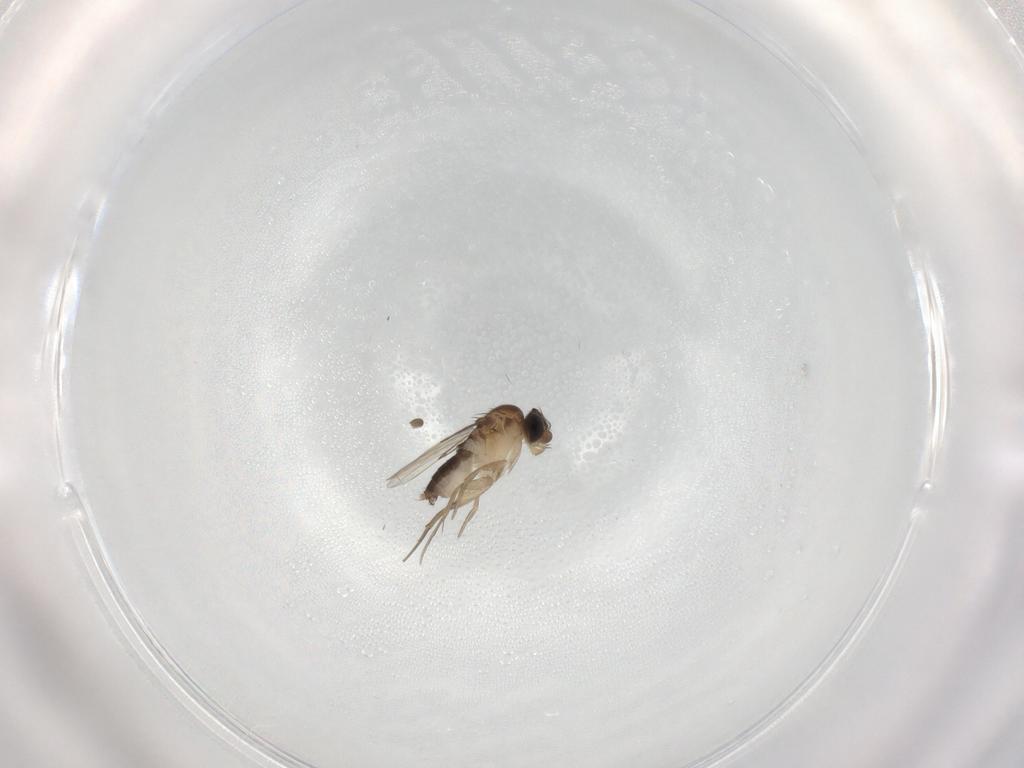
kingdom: Animalia
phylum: Arthropoda
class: Insecta
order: Diptera
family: Phoridae
